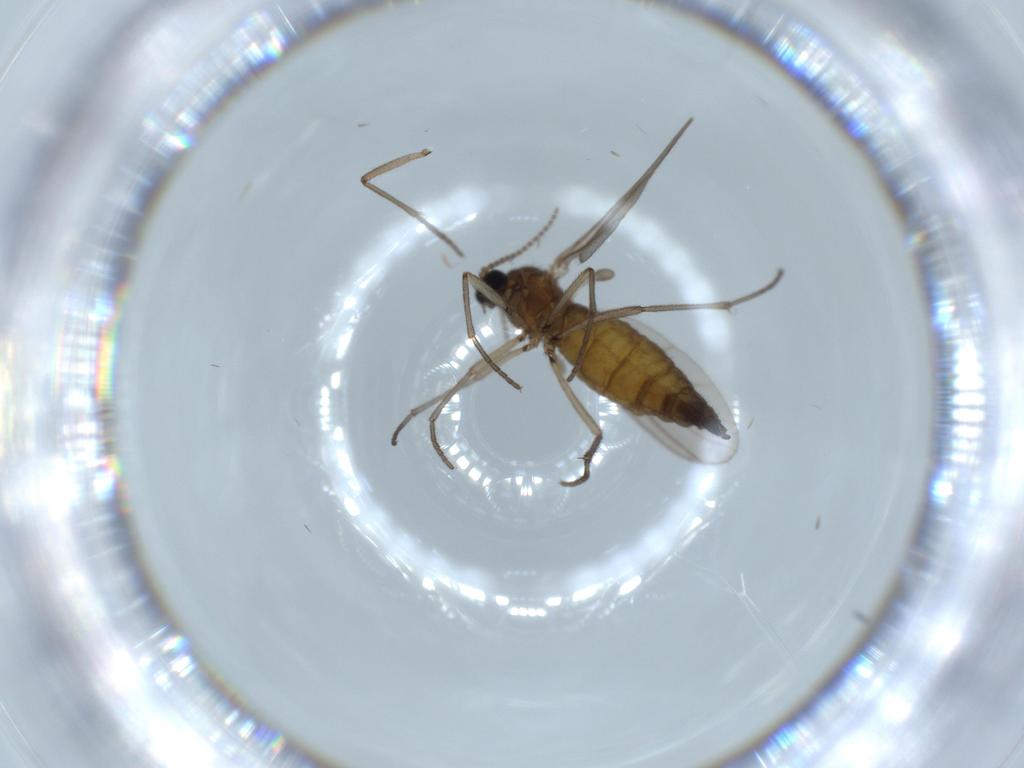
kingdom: Animalia
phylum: Arthropoda
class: Insecta
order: Diptera
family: Sciaridae
